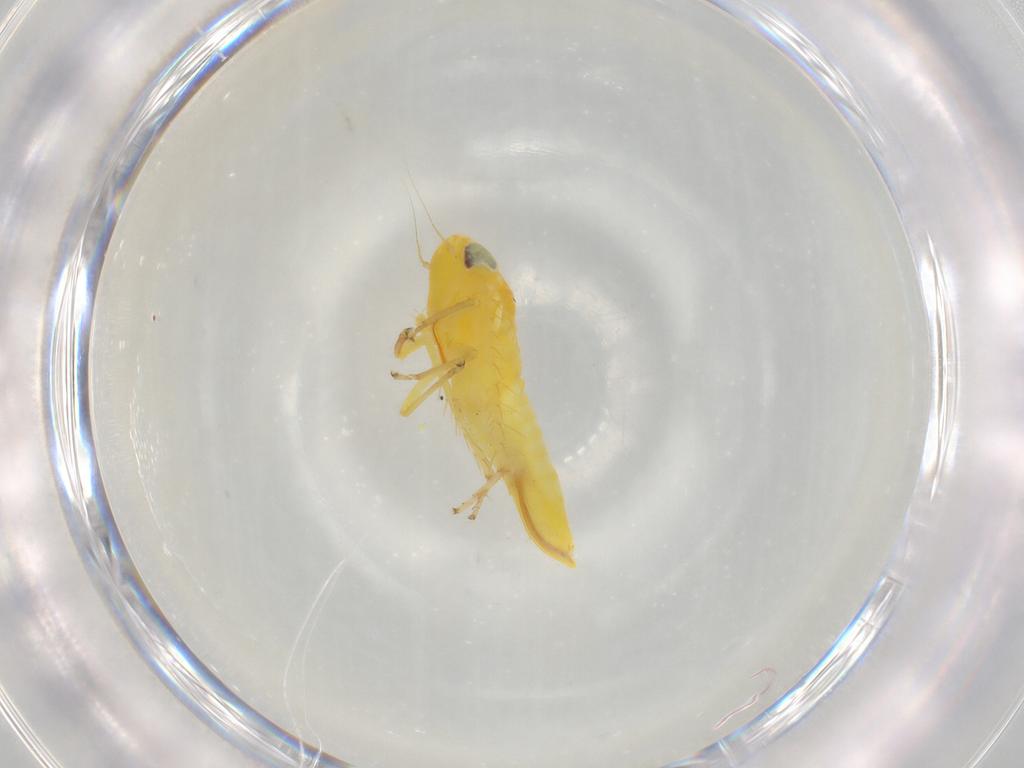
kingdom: Animalia
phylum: Arthropoda
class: Insecta
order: Hemiptera
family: Cicadellidae
